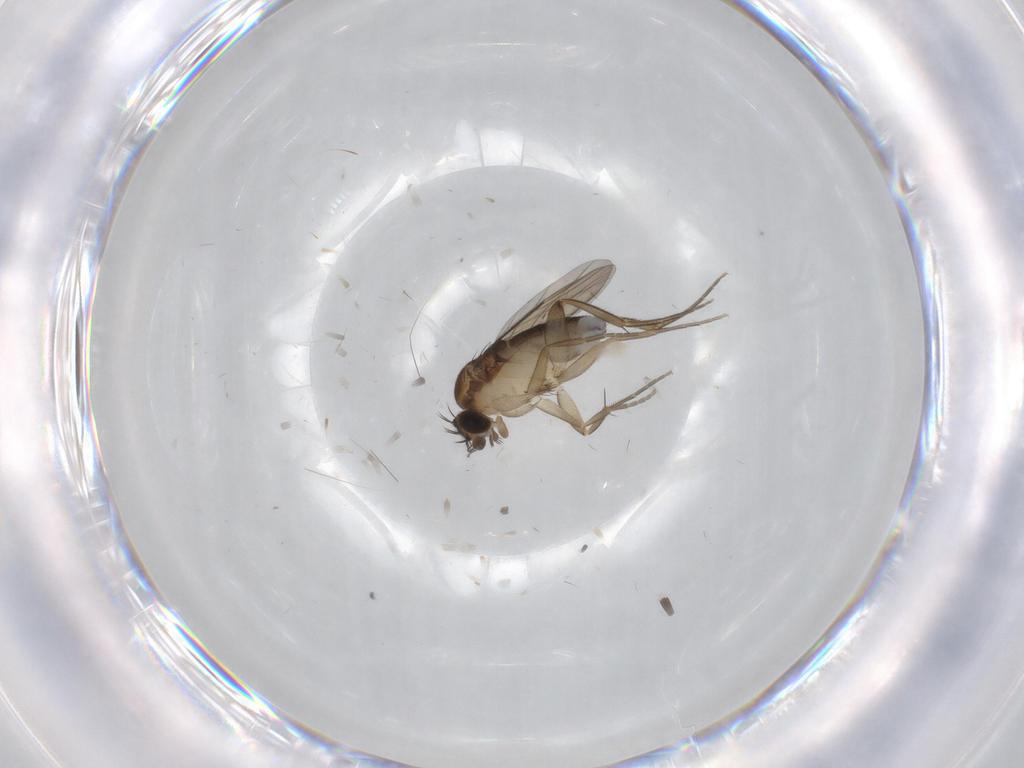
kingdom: Animalia
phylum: Arthropoda
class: Insecta
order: Diptera
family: Phoridae
